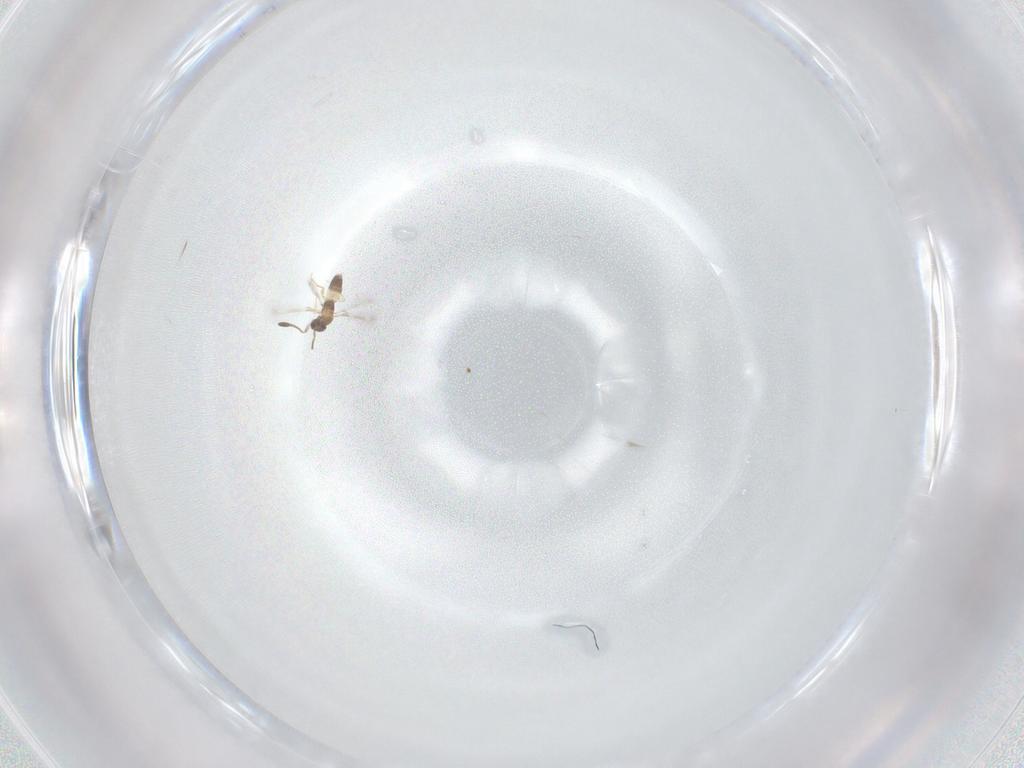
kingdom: Animalia
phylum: Arthropoda
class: Insecta
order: Hymenoptera
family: Mymaridae
